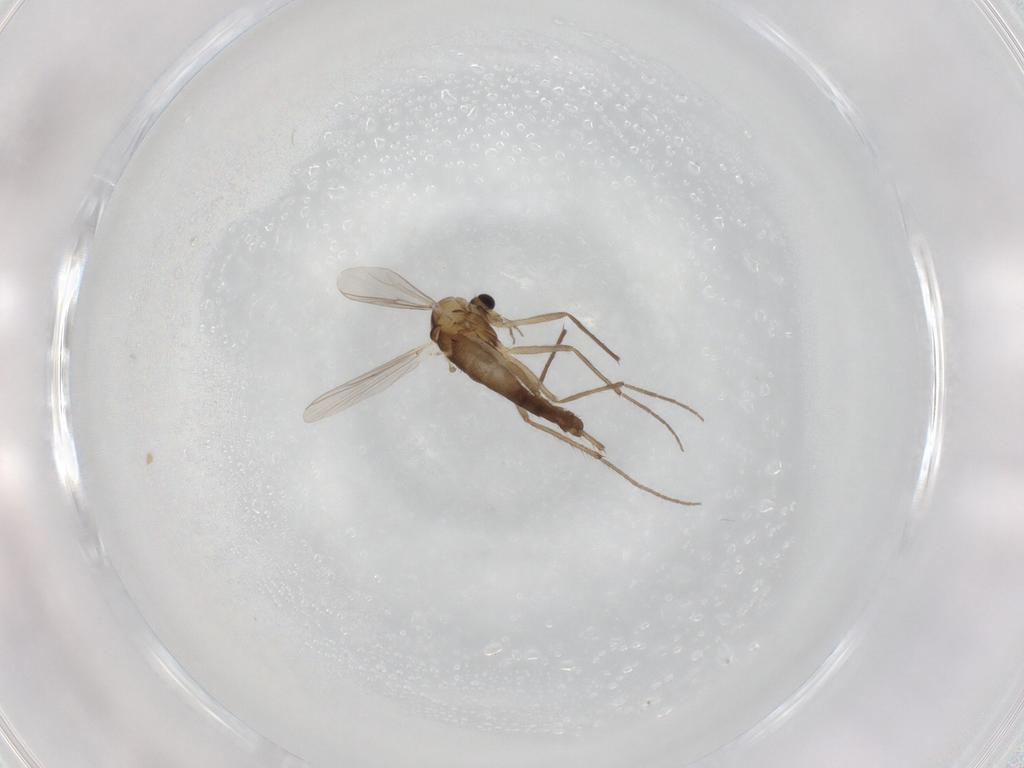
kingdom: Animalia
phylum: Arthropoda
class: Insecta
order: Diptera
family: Chironomidae
